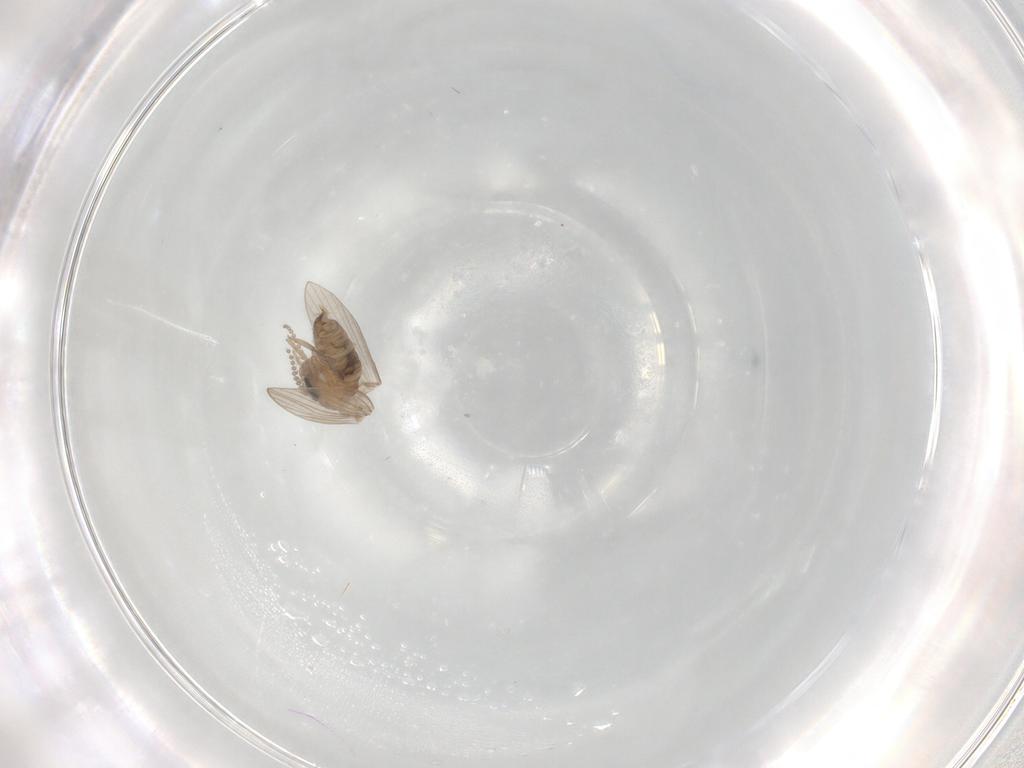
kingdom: Animalia
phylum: Arthropoda
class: Insecta
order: Diptera
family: Psychodidae
